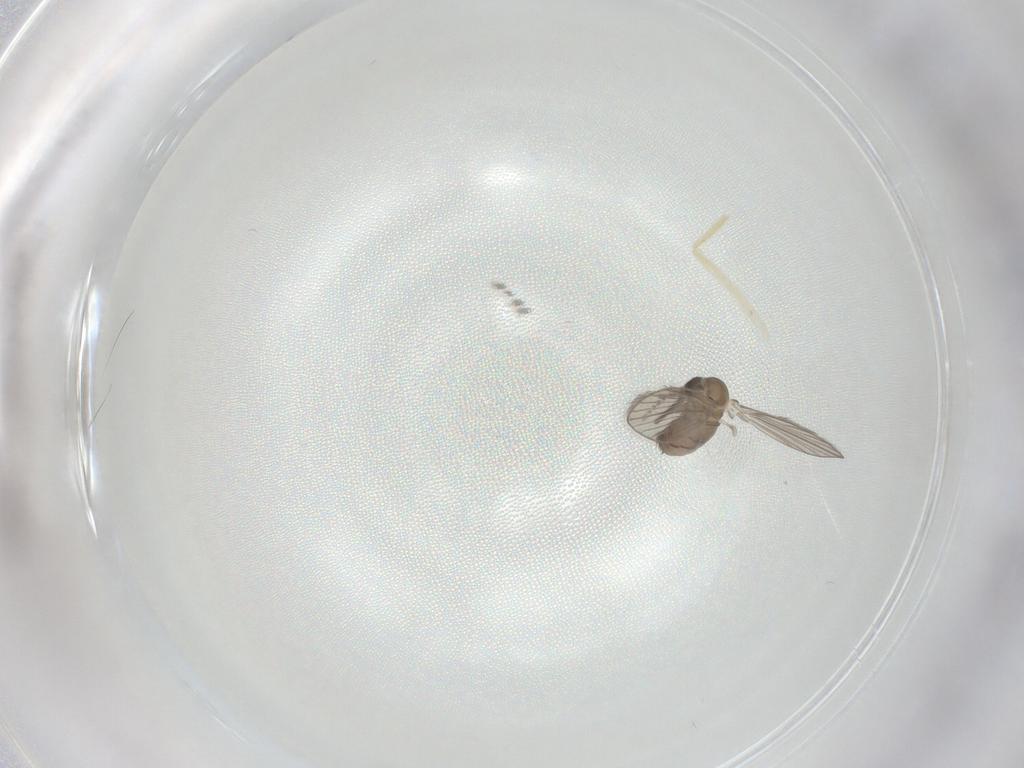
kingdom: Animalia
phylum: Arthropoda
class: Insecta
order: Diptera
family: Psychodidae
